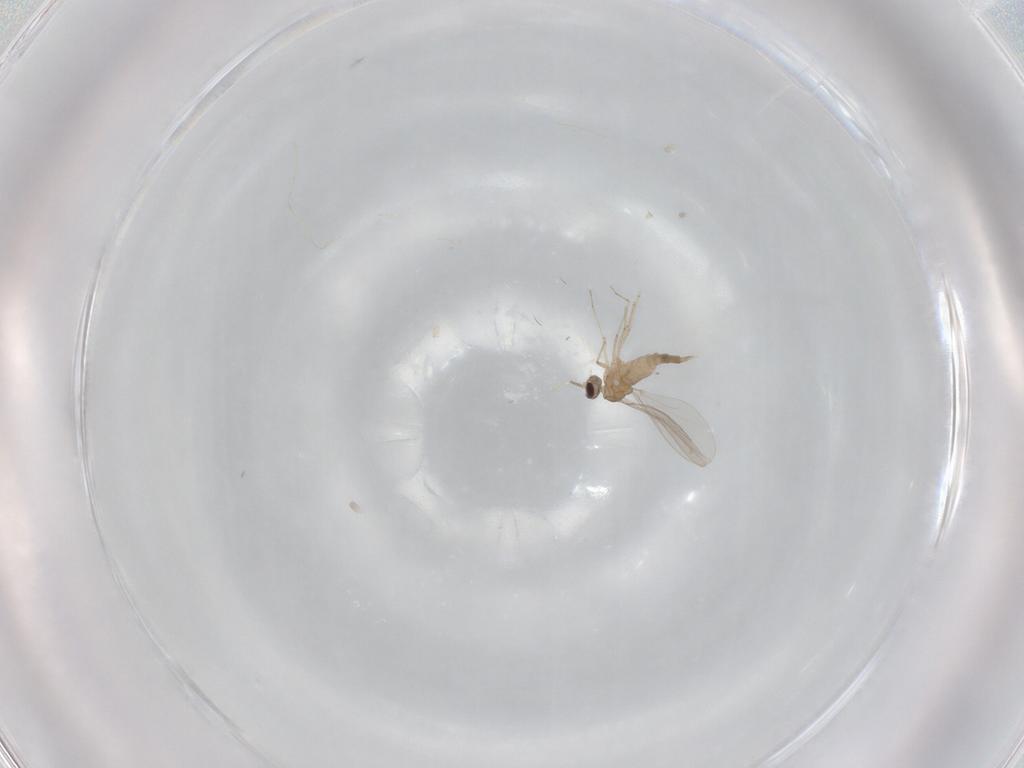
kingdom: Animalia
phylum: Arthropoda
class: Insecta
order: Diptera
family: Cecidomyiidae
